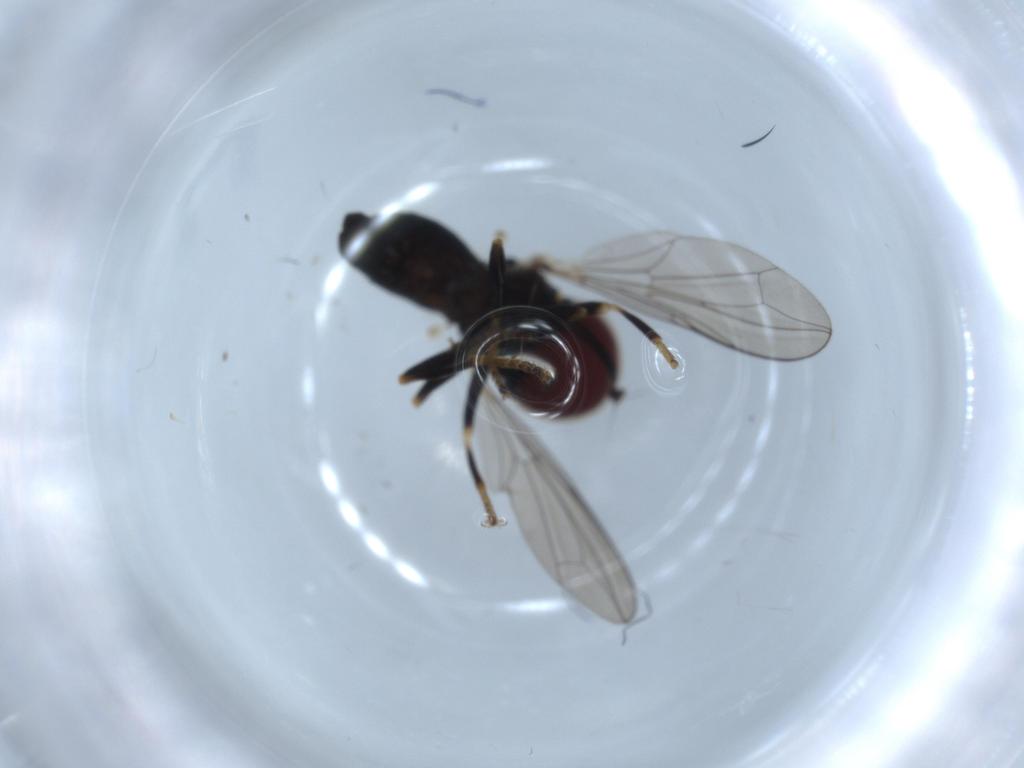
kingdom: Animalia
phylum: Arthropoda
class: Insecta
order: Diptera
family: Pipunculidae
